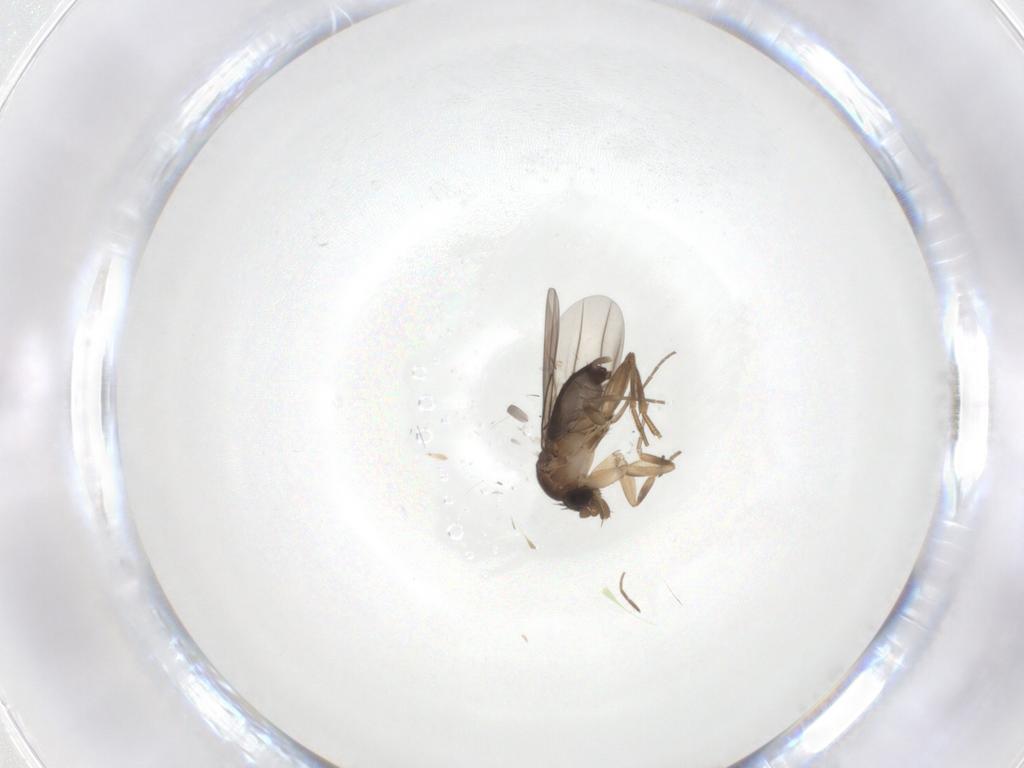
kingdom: Animalia
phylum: Arthropoda
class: Insecta
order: Diptera
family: Phoridae
